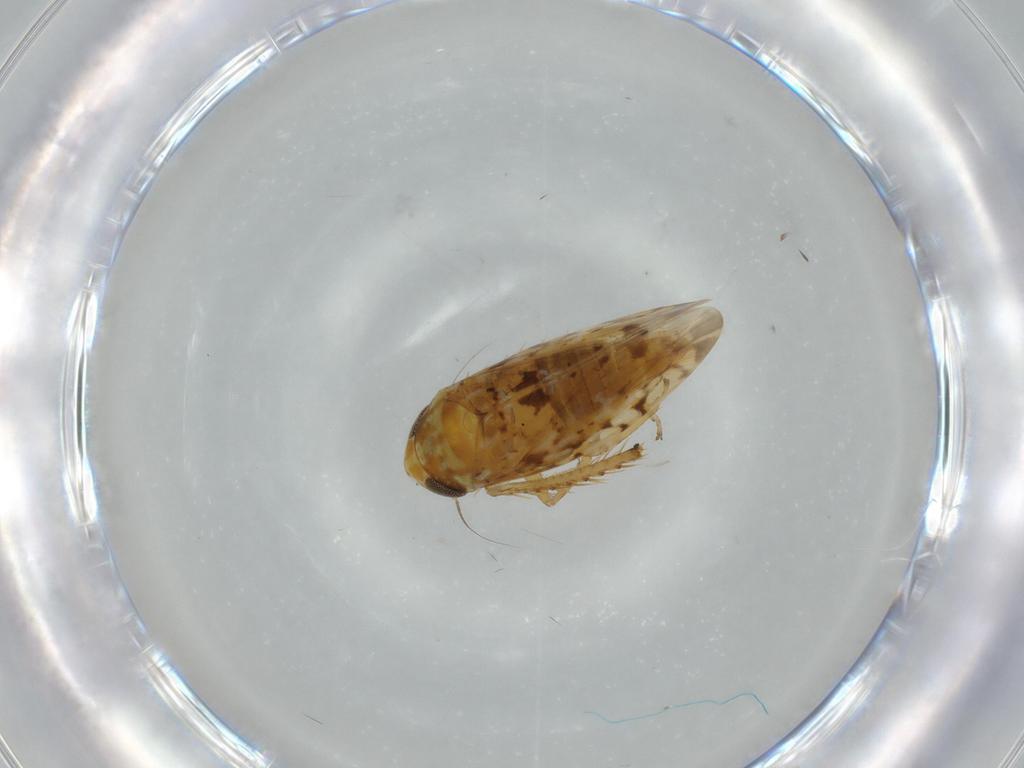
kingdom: Animalia
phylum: Arthropoda
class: Insecta
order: Hemiptera
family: Cicadellidae
